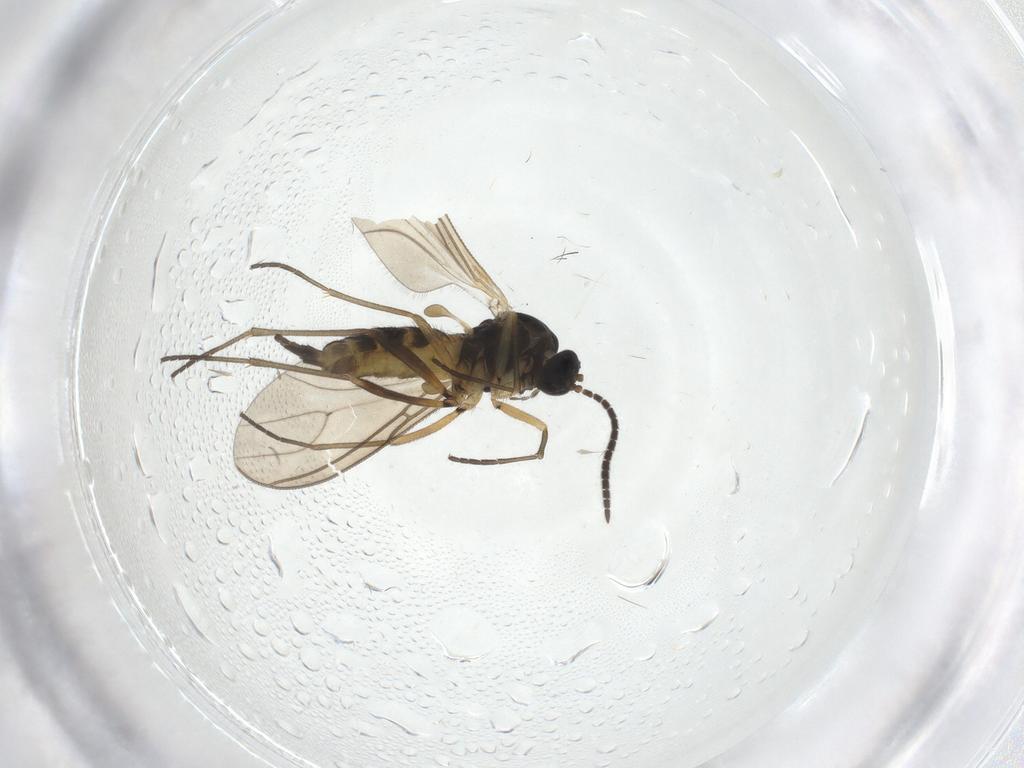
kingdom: Animalia
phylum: Arthropoda
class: Insecta
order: Diptera
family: Sciaridae
